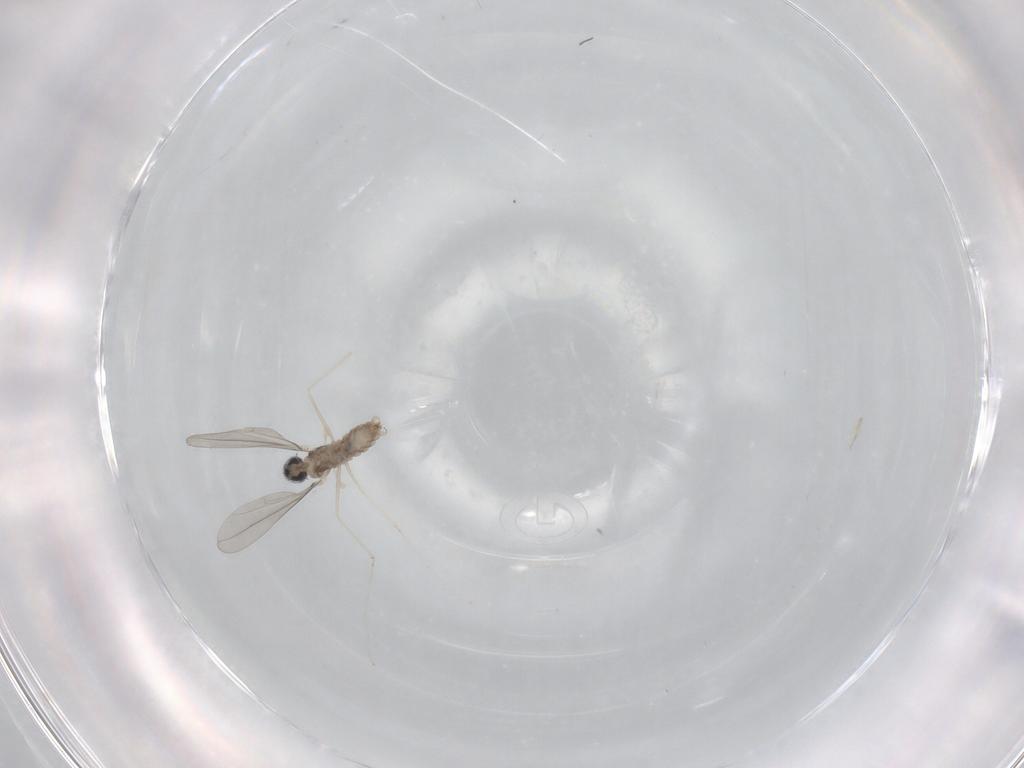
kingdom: Animalia
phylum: Arthropoda
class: Insecta
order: Diptera
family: Cecidomyiidae
